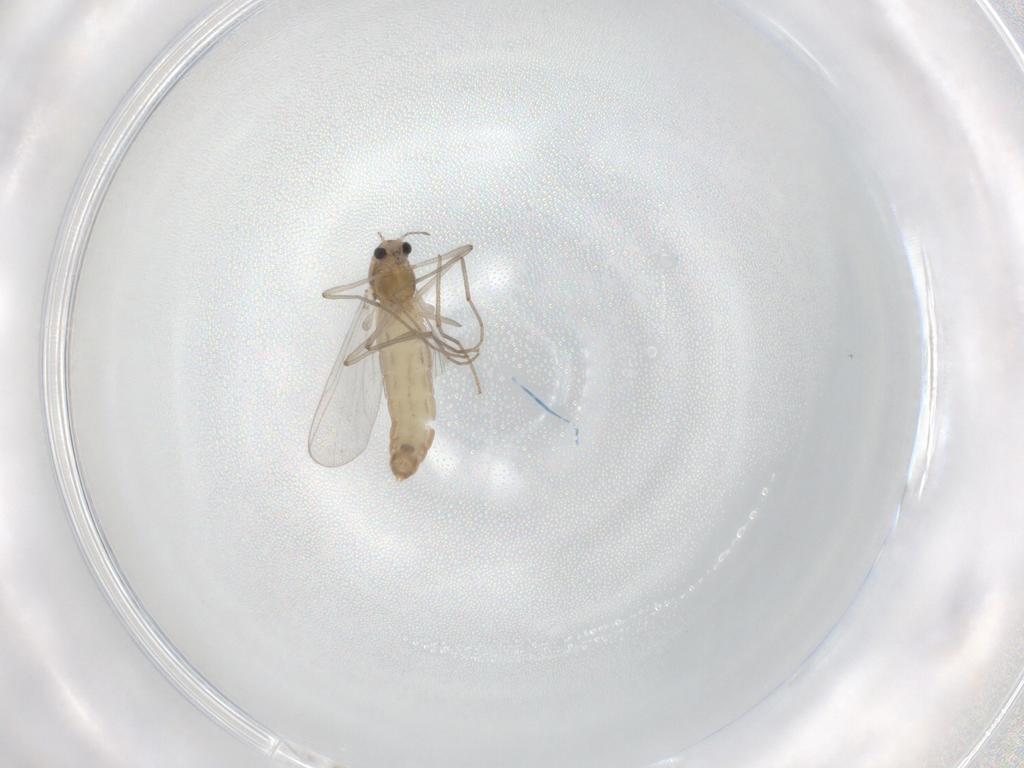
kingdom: Animalia
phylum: Arthropoda
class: Insecta
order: Diptera
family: Chironomidae
